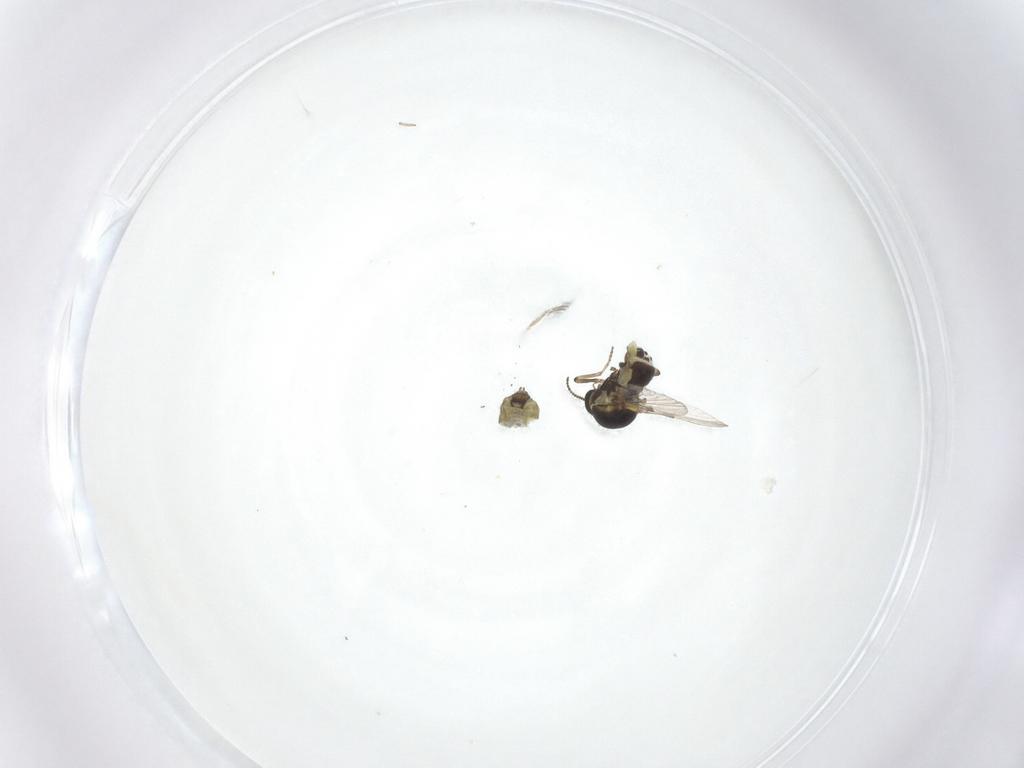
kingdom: Animalia
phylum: Arthropoda
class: Insecta
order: Diptera
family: Ceratopogonidae
